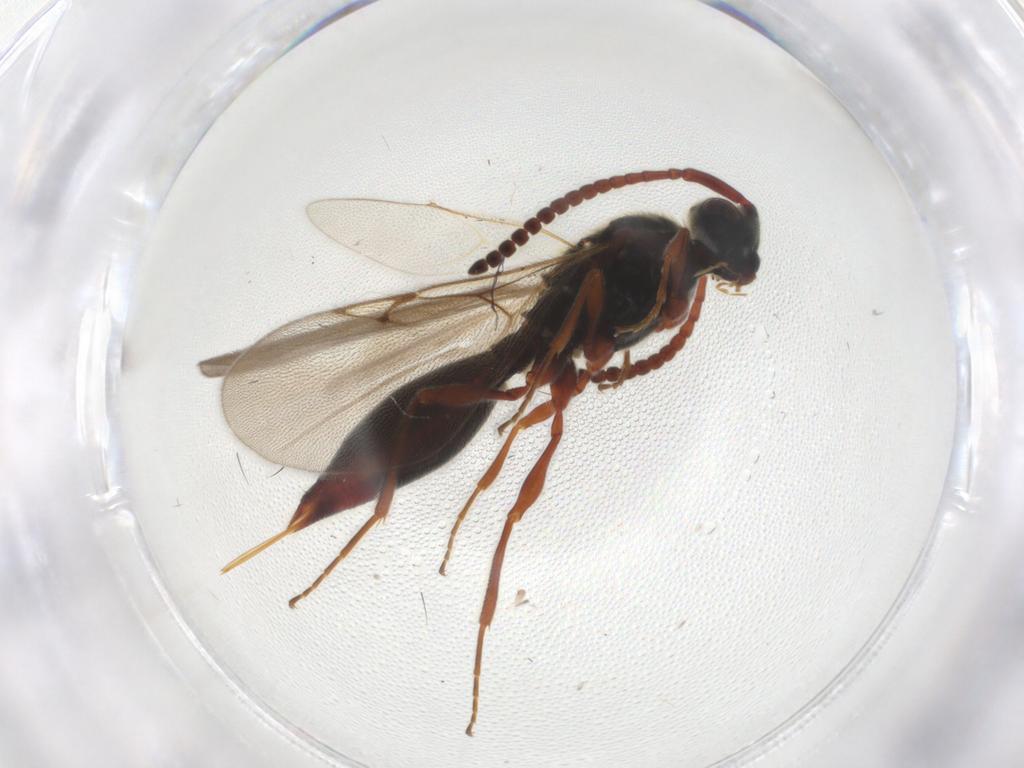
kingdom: Animalia
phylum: Arthropoda
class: Insecta
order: Hymenoptera
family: Diapriidae
